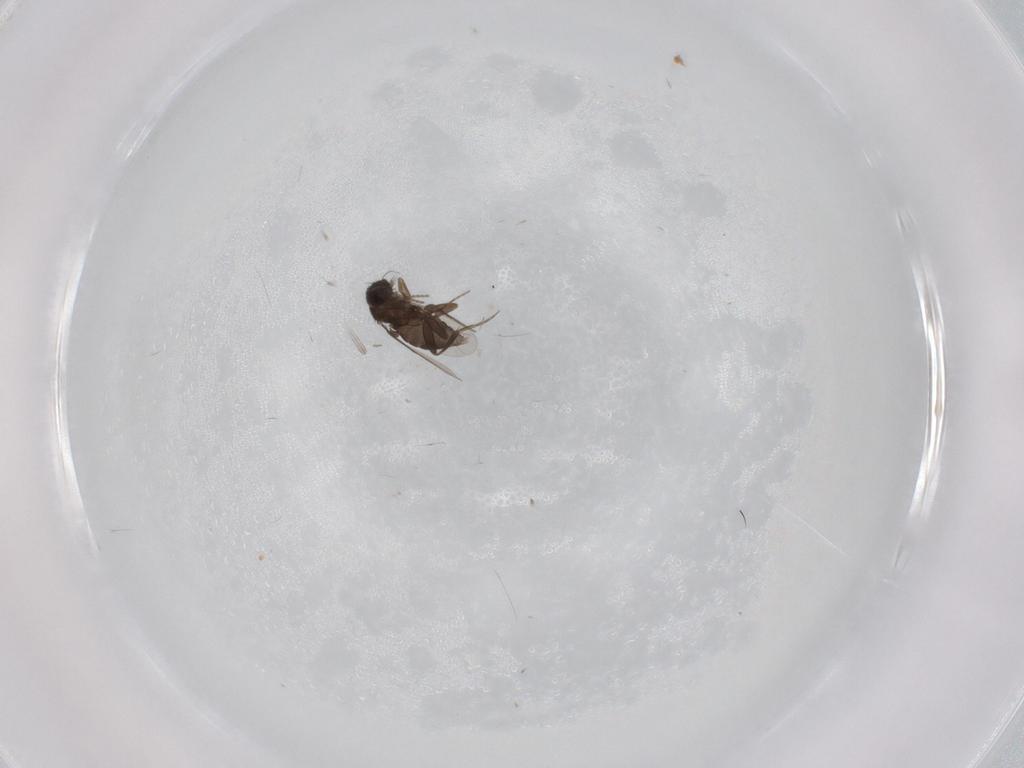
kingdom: Animalia
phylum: Arthropoda
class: Insecta
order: Diptera
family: Phoridae
